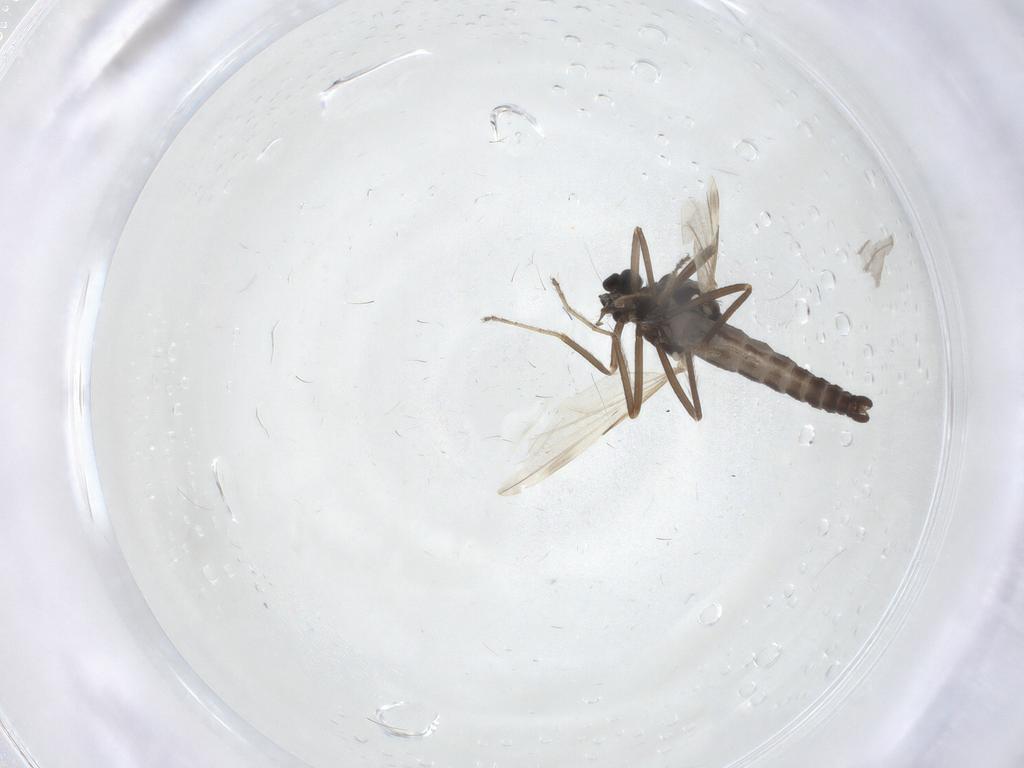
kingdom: Animalia
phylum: Arthropoda
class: Insecta
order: Diptera
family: Ceratopogonidae
